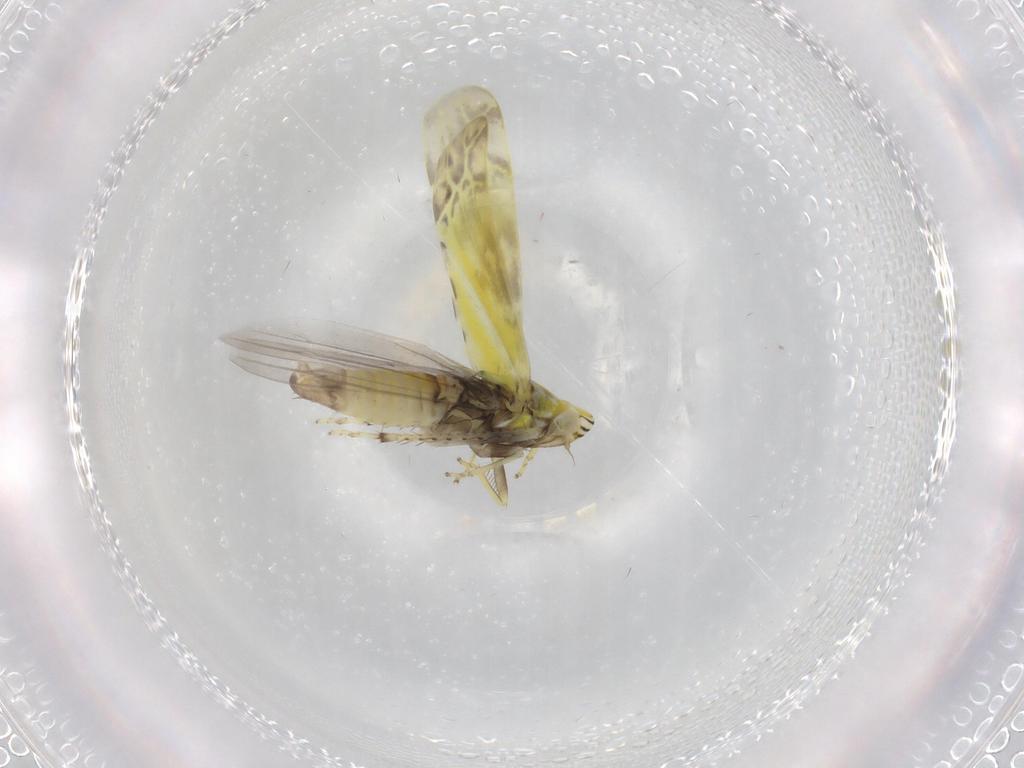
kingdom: Animalia
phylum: Arthropoda
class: Insecta
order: Hemiptera
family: Cicadellidae
